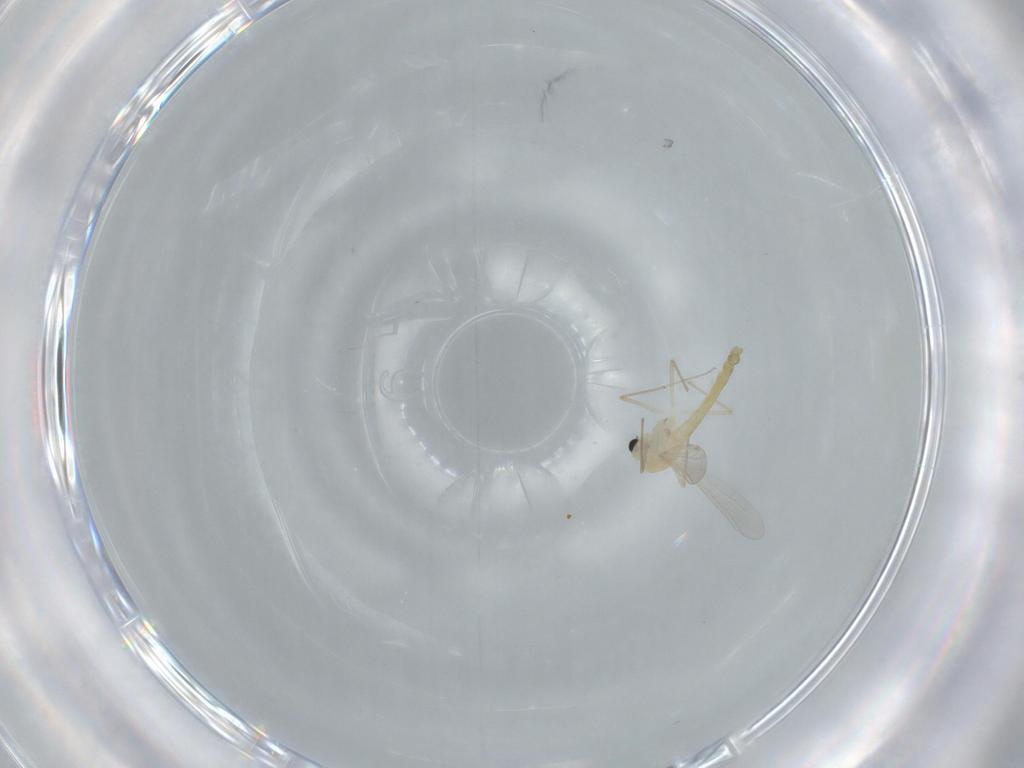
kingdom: Animalia
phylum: Arthropoda
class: Insecta
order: Diptera
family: Chironomidae
